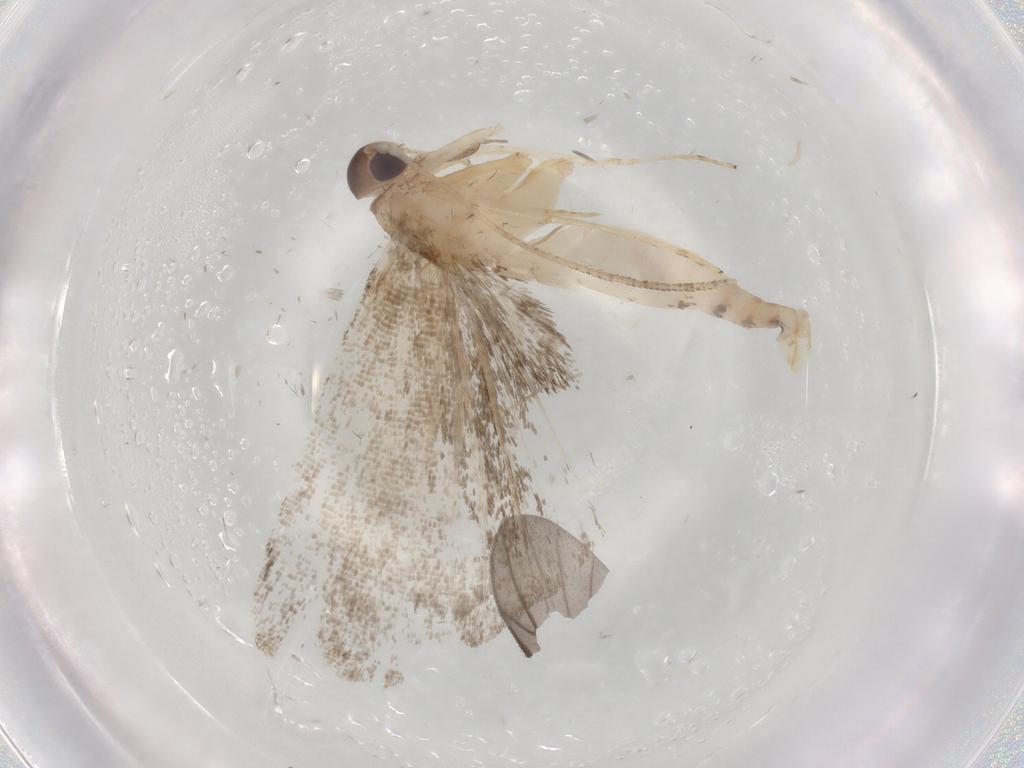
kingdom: Animalia
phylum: Arthropoda
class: Insecta
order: Lepidoptera
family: Cosmopterigidae
